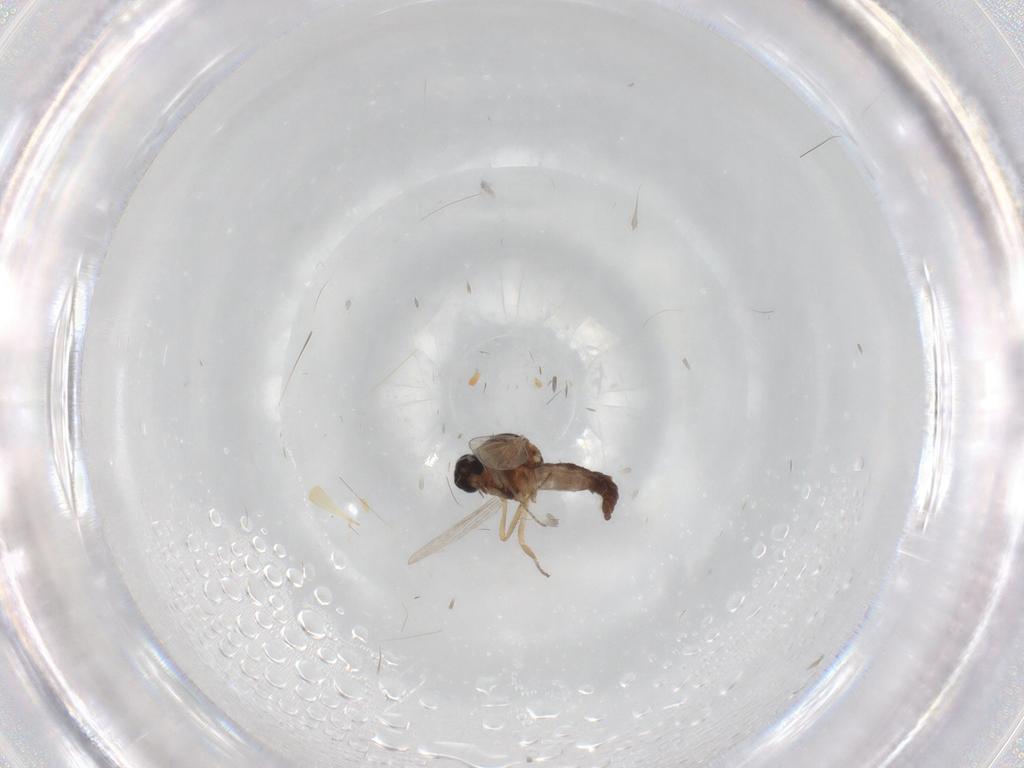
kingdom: Animalia
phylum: Arthropoda
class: Insecta
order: Diptera
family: Ceratopogonidae
